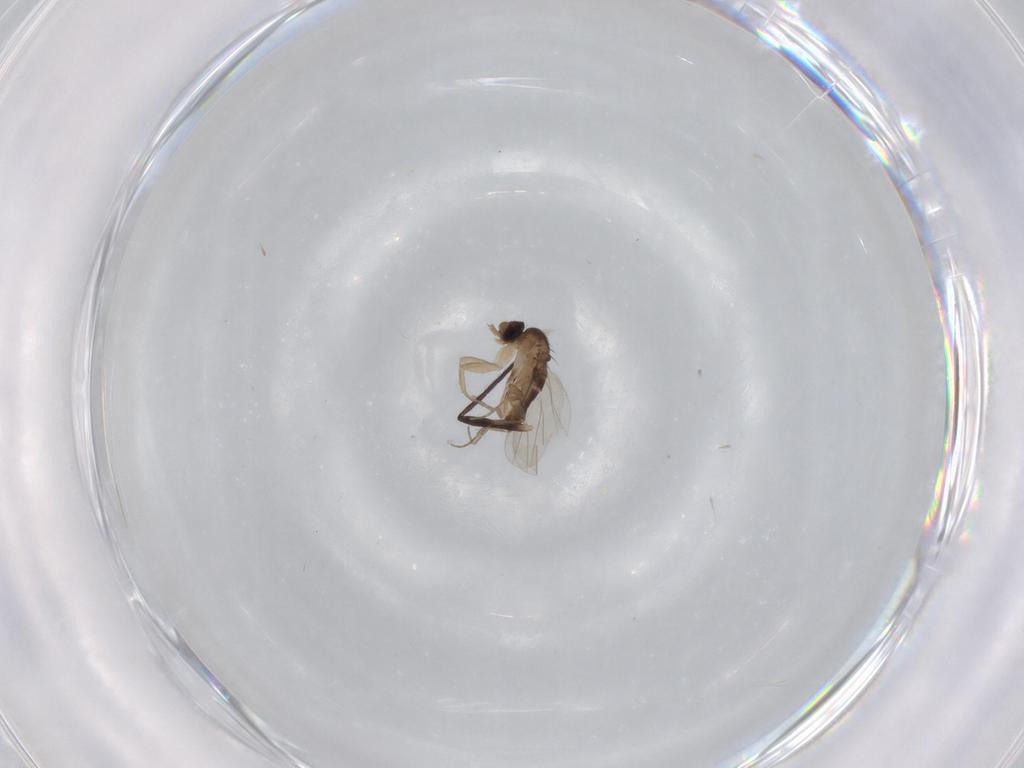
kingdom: Animalia
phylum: Arthropoda
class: Insecta
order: Diptera
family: Phoridae
